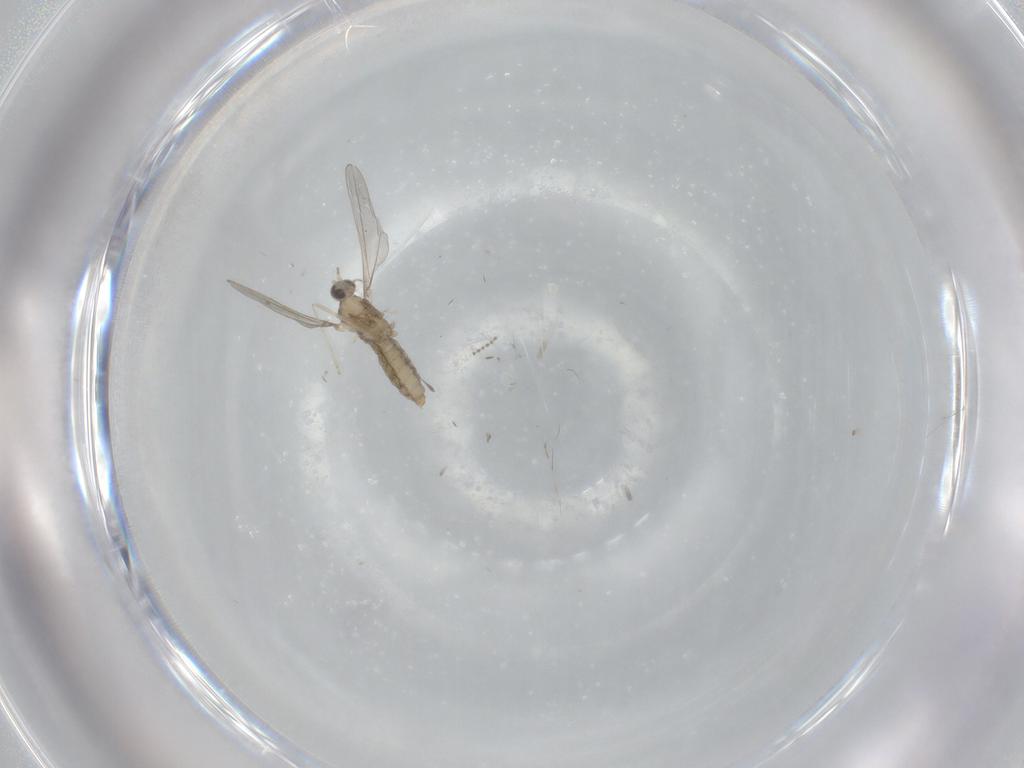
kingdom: Animalia
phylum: Arthropoda
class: Insecta
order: Diptera
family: Cecidomyiidae
